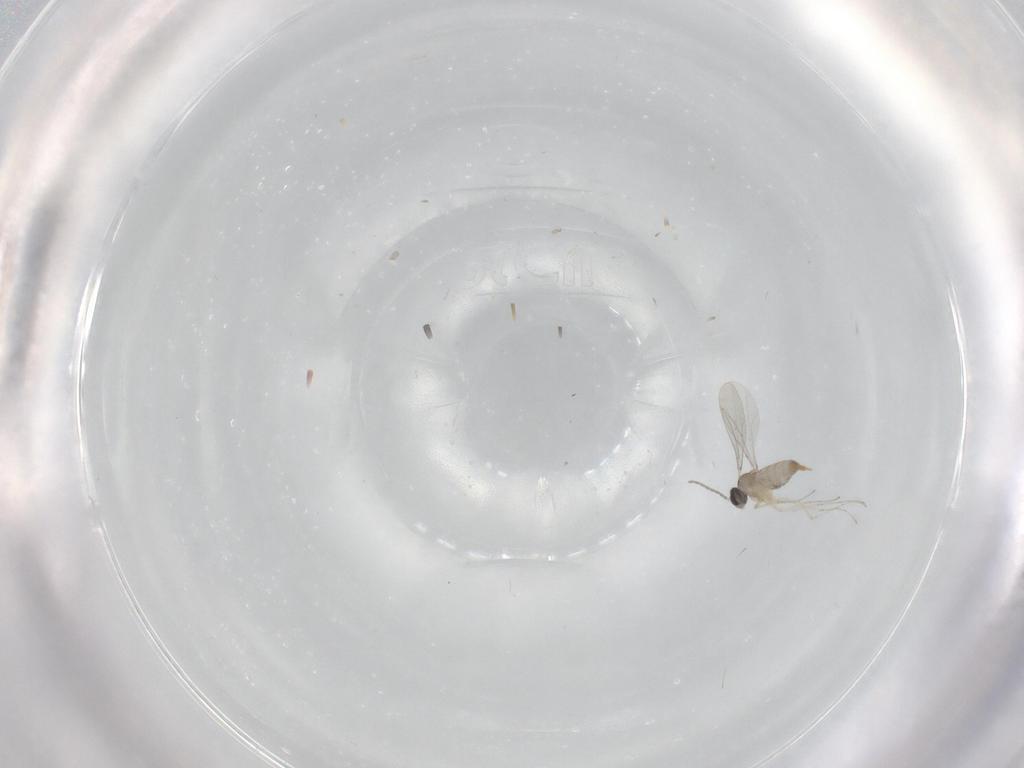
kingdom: Animalia
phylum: Arthropoda
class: Insecta
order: Diptera
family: Cecidomyiidae
